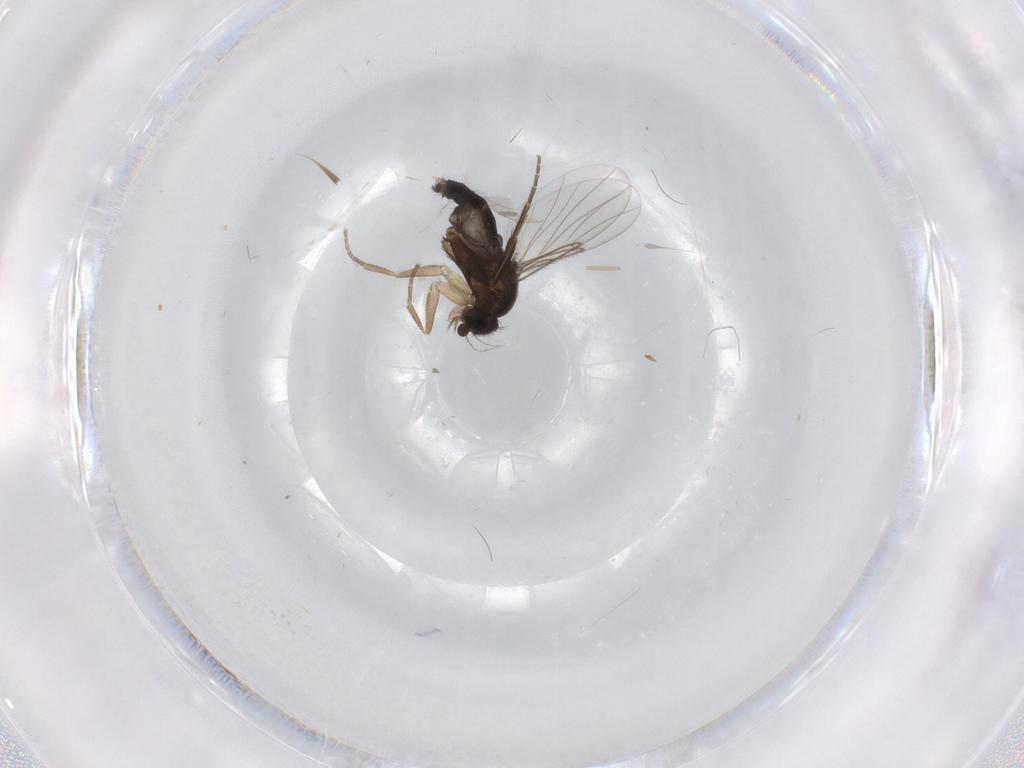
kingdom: Animalia
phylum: Arthropoda
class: Insecta
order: Diptera
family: Phoridae
